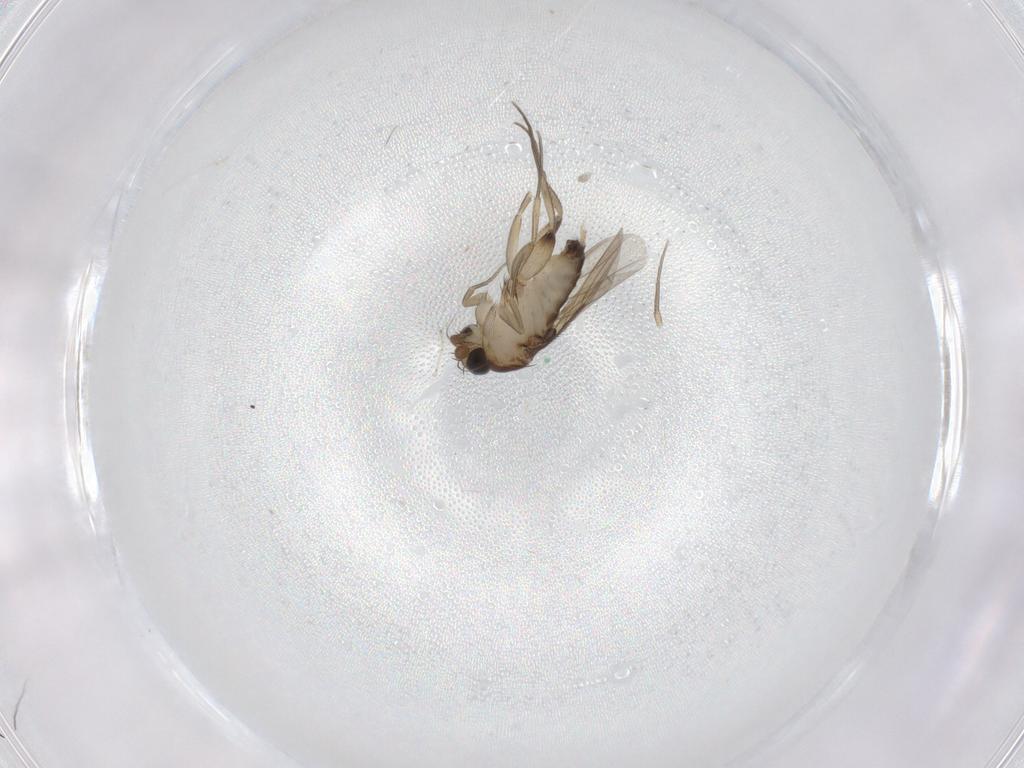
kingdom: Animalia
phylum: Arthropoda
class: Insecta
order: Diptera
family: Phoridae
